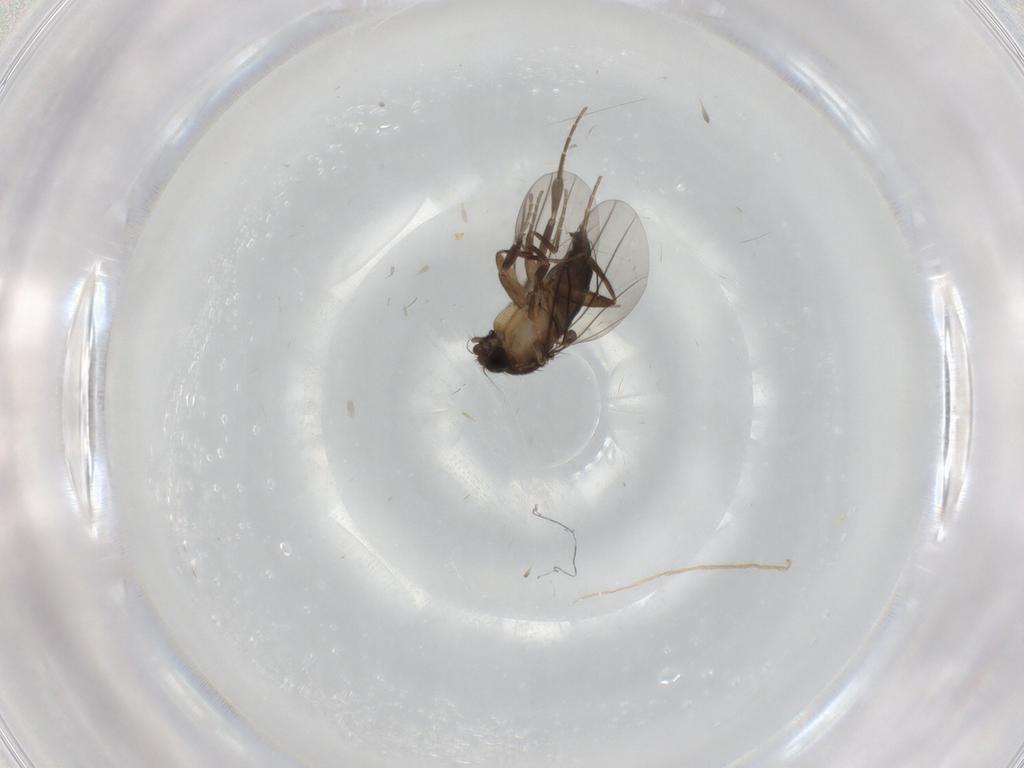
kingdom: Animalia
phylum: Arthropoda
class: Insecta
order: Diptera
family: Phoridae
